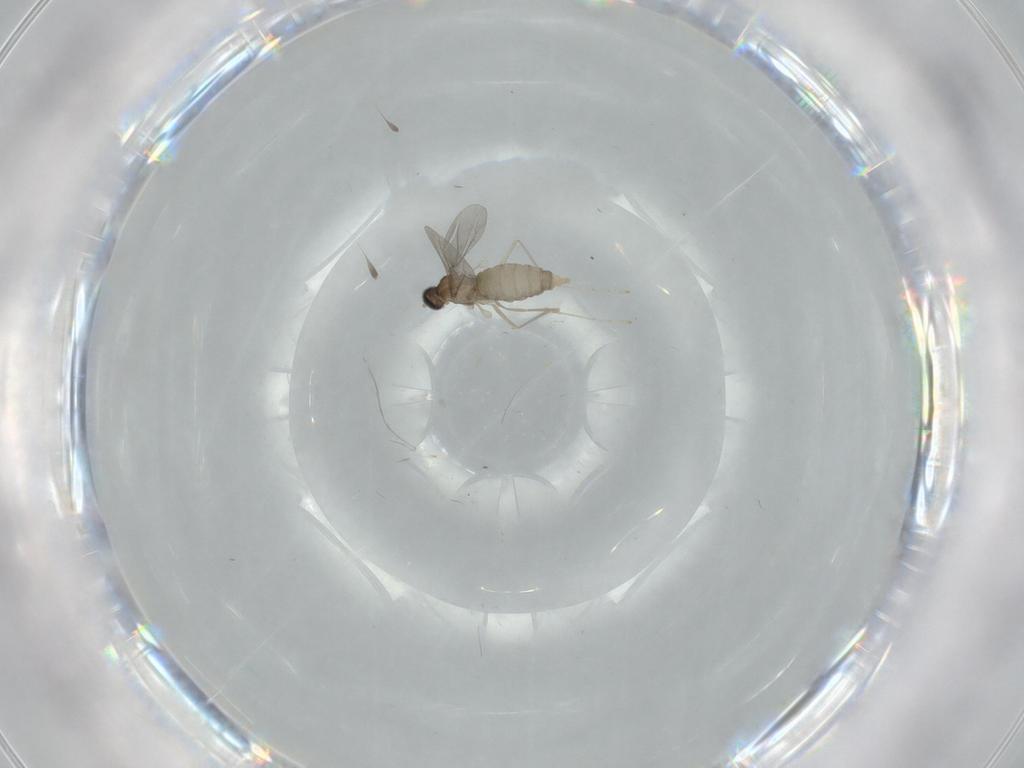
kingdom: Animalia
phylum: Arthropoda
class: Insecta
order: Diptera
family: Cecidomyiidae
